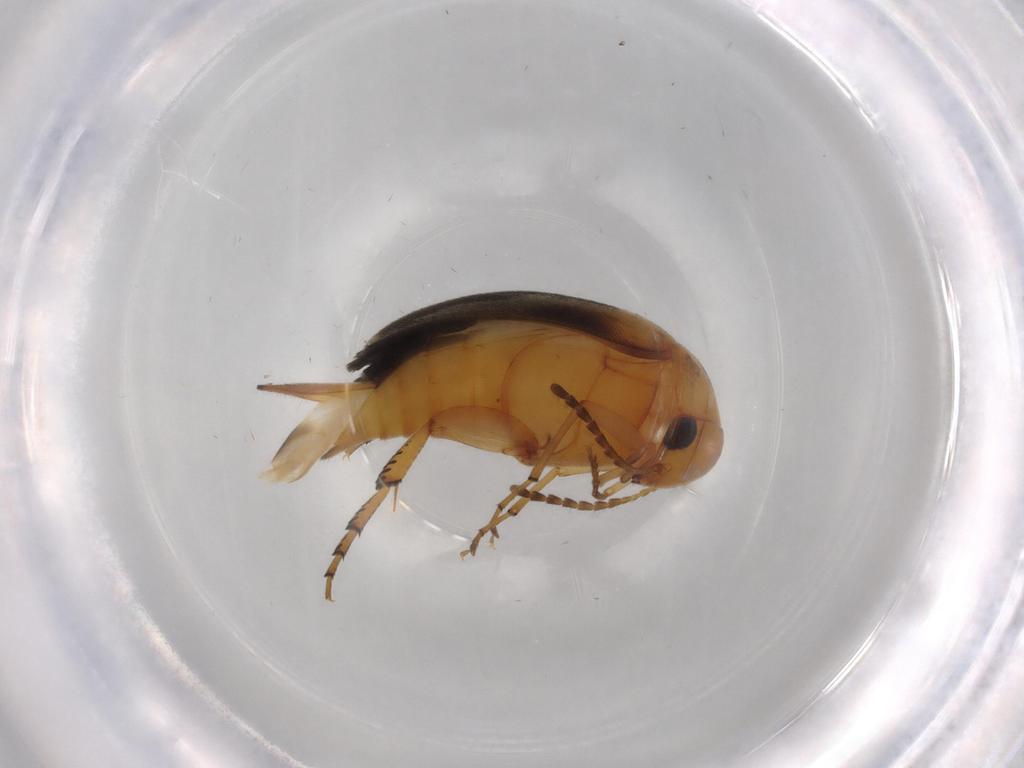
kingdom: Animalia
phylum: Arthropoda
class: Insecta
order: Coleoptera
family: Mordellidae
